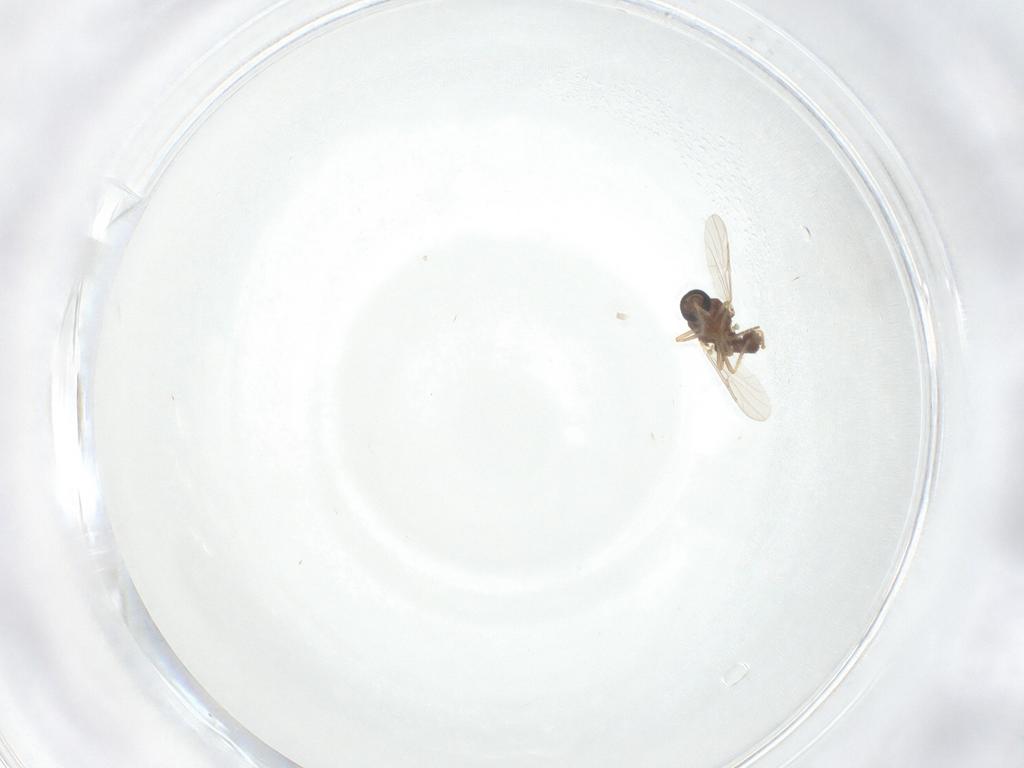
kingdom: Animalia
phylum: Arthropoda
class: Insecta
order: Diptera
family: Ceratopogonidae
